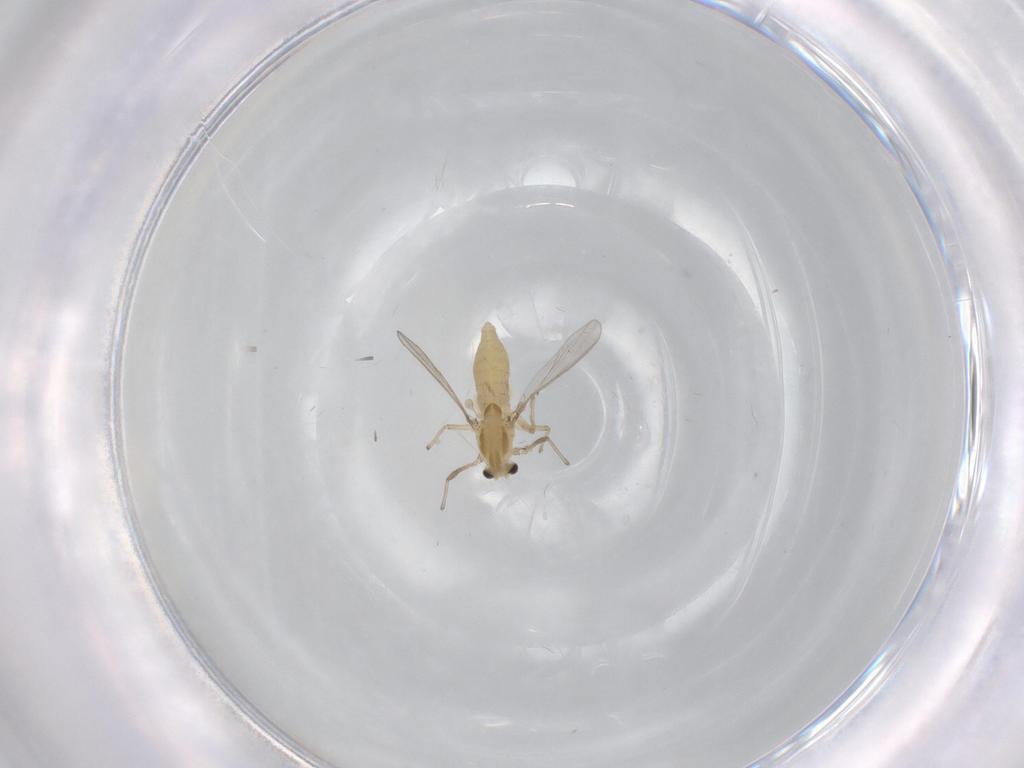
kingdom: Animalia
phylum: Arthropoda
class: Insecta
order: Diptera
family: Chironomidae
